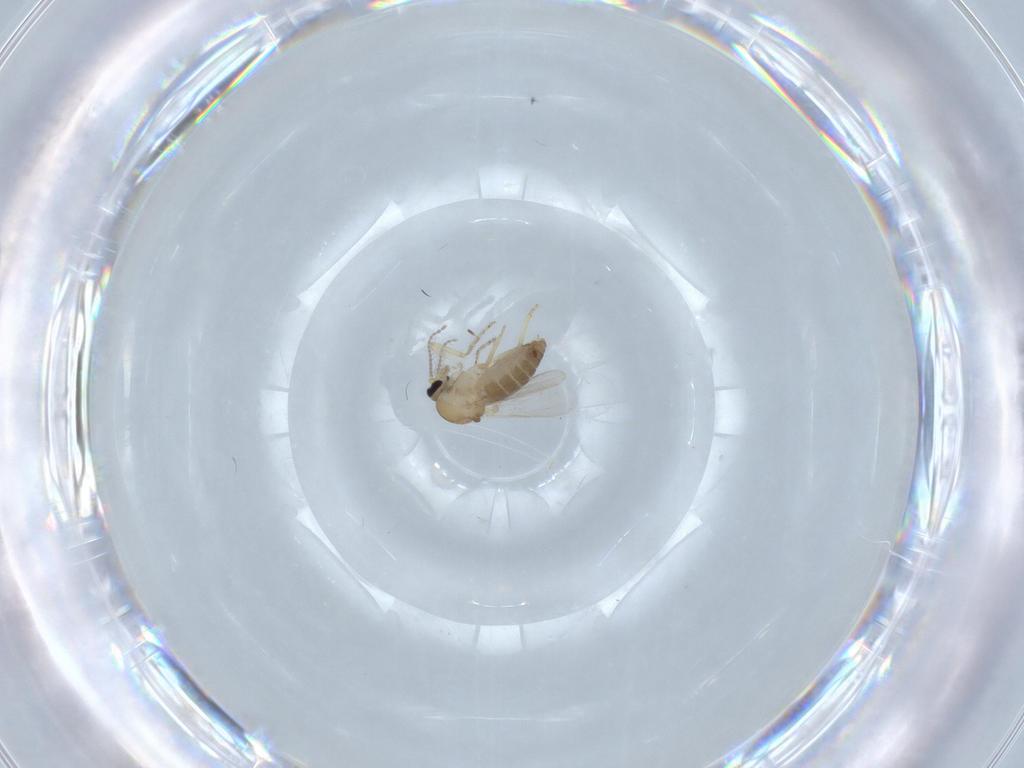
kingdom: Animalia
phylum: Arthropoda
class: Insecta
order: Diptera
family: Ceratopogonidae
